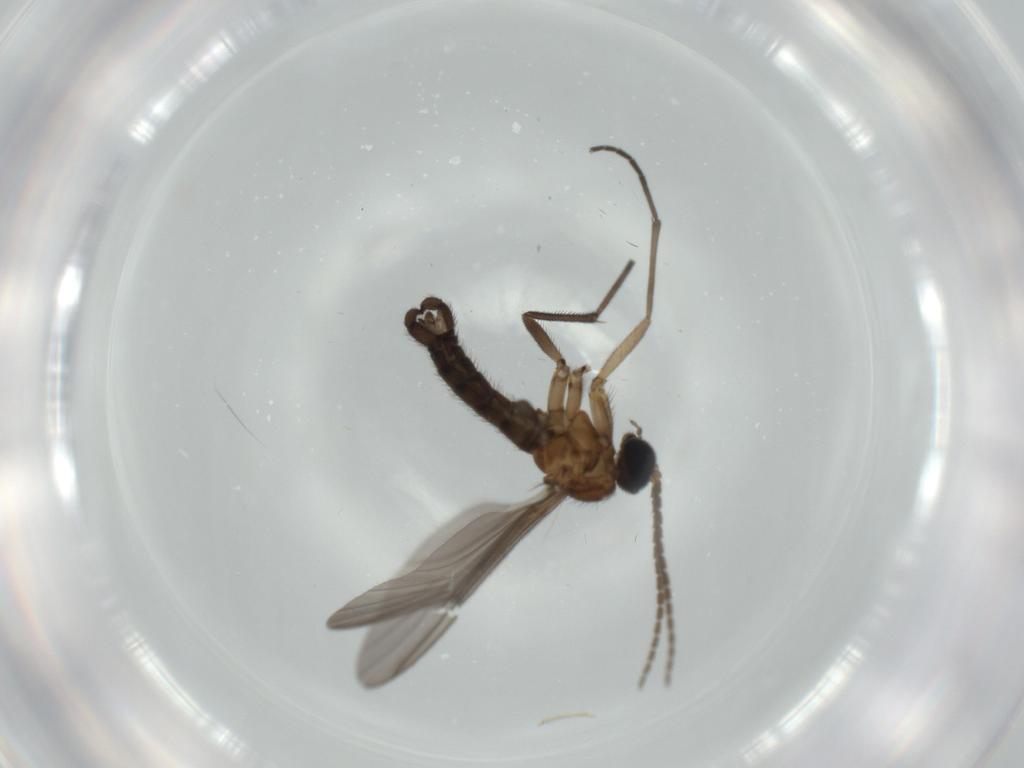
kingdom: Animalia
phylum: Arthropoda
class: Insecta
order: Diptera
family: Sciaridae
